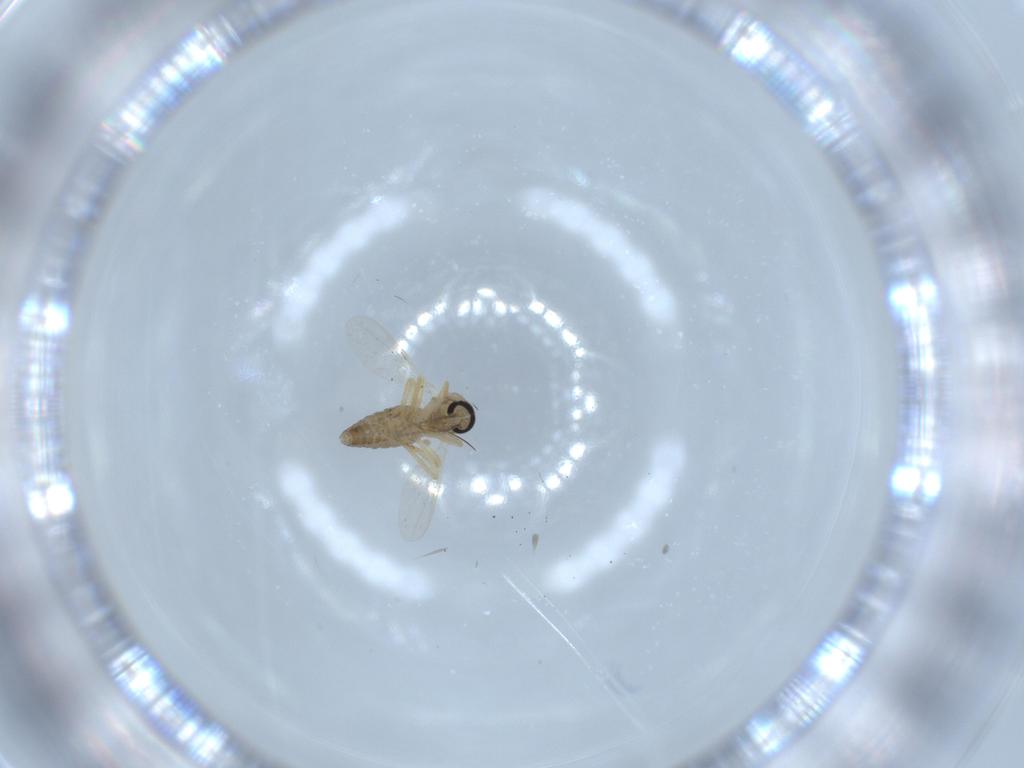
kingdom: Animalia
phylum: Arthropoda
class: Insecta
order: Diptera
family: Ceratopogonidae
